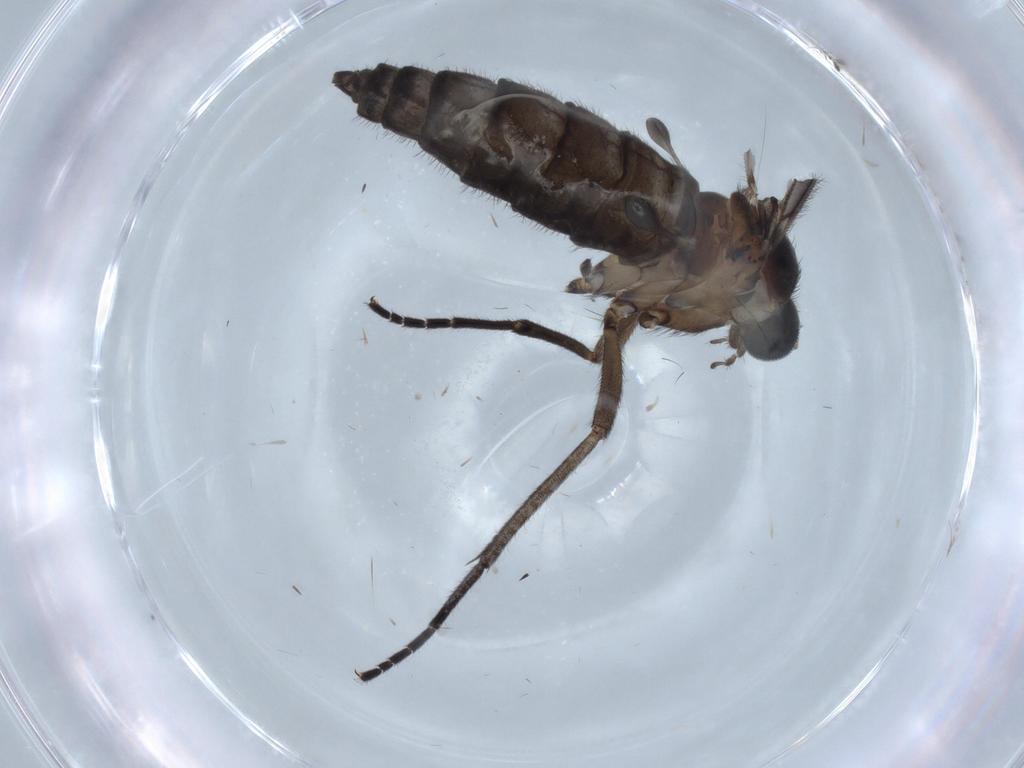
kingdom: Animalia
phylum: Arthropoda
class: Insecta
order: Diptera
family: Sciaridae
